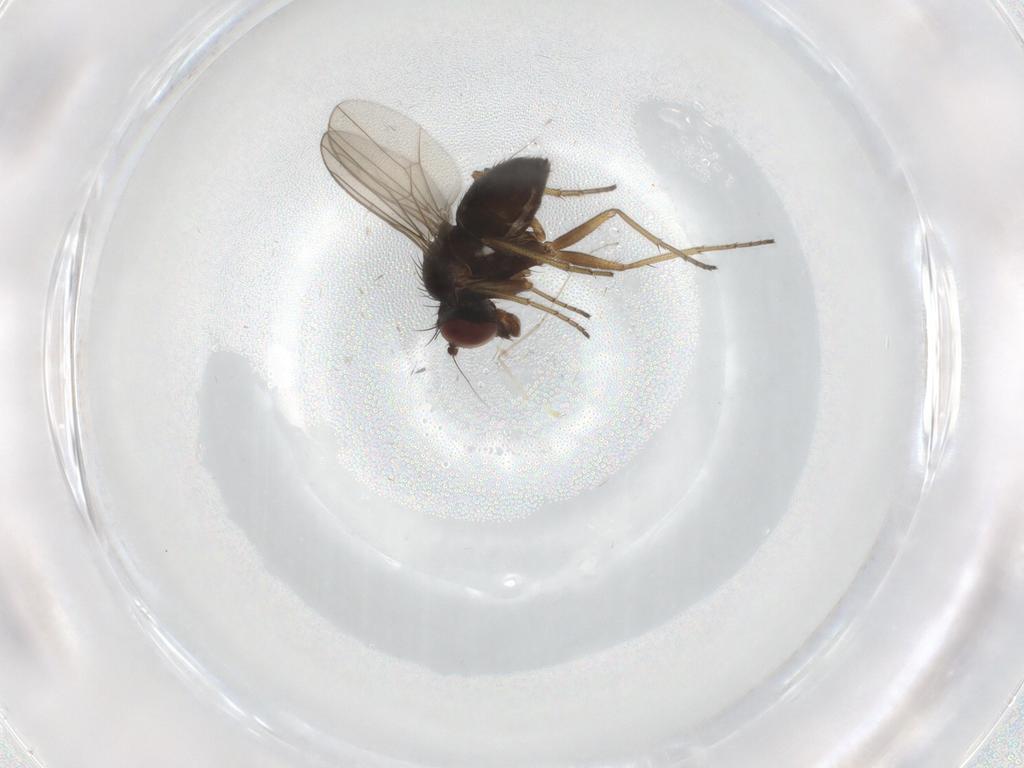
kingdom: Animalia
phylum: Arthropoda
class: Insecta
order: Diptera
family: Dolichopodidae
